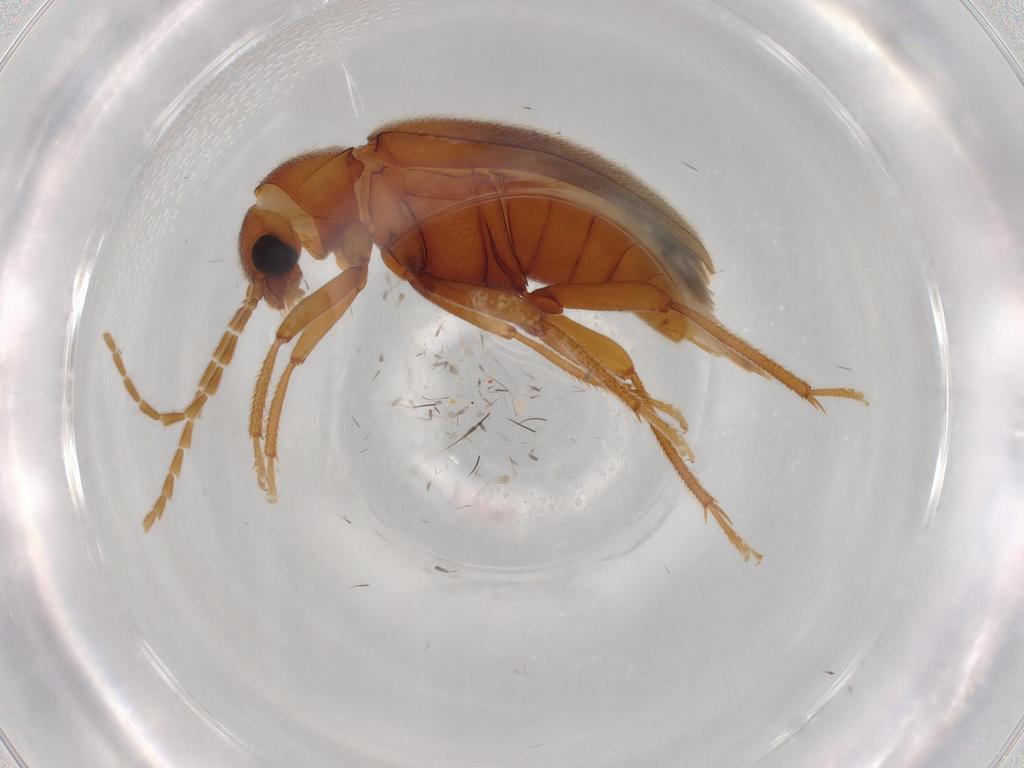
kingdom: Animalia
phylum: Arthropoda
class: Insecta
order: Coleoptera
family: Ptilodactylidae
